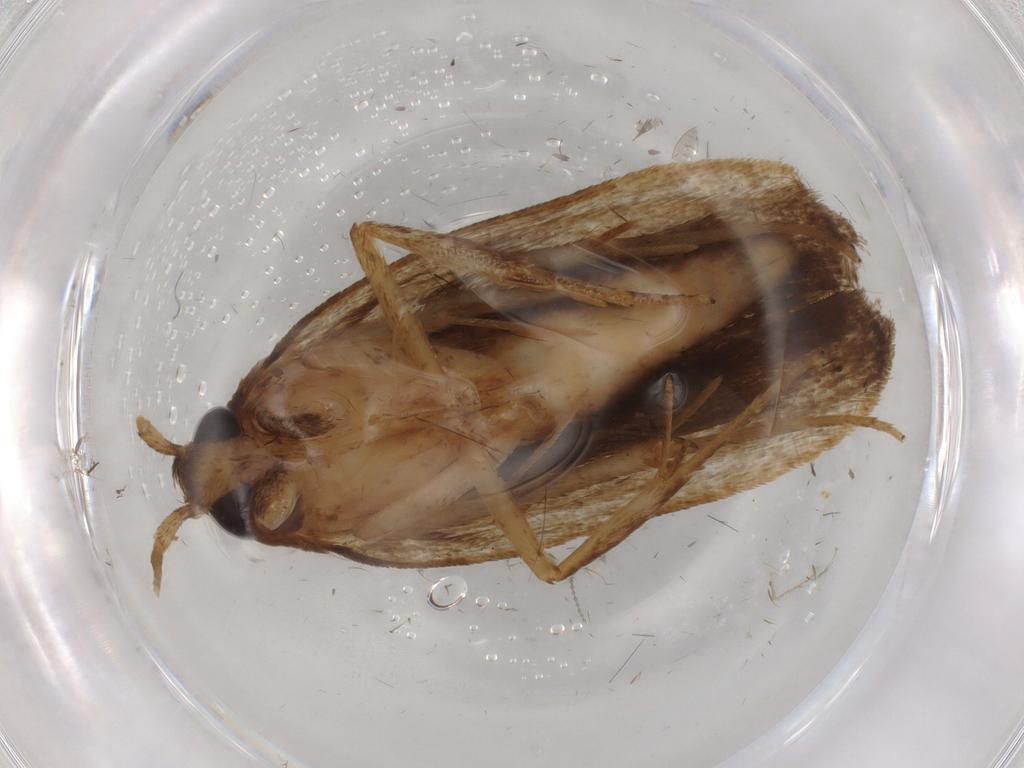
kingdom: Animalia
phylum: Arthropoda
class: Insecta
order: Lepidoptera
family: Autostichidae
